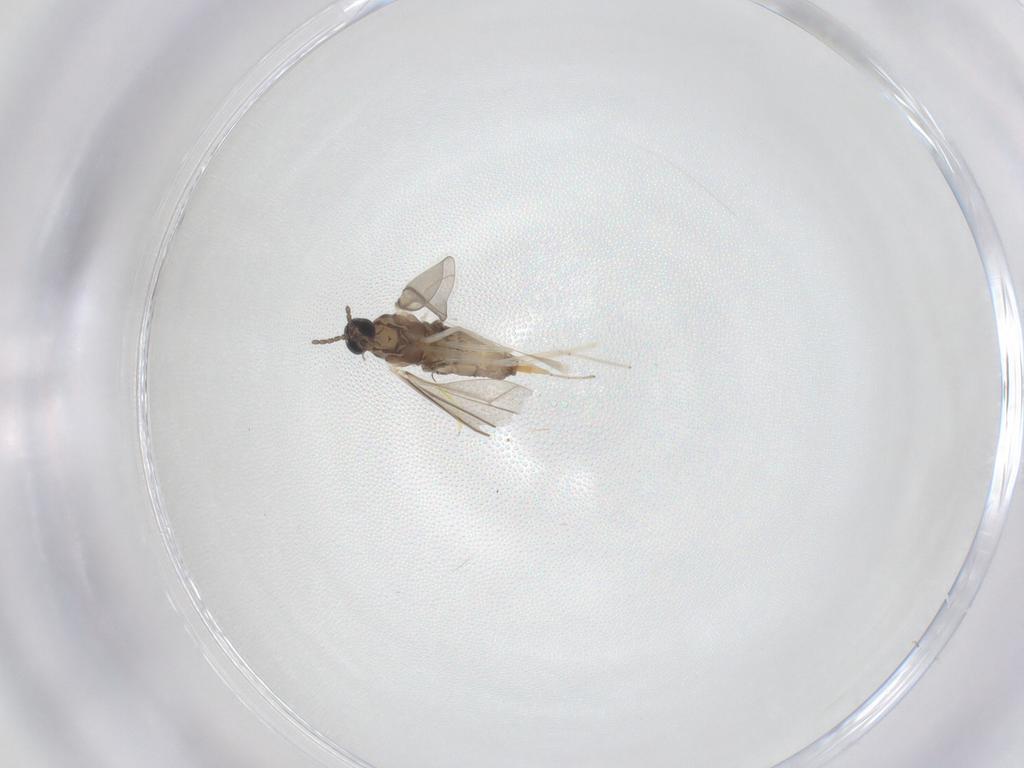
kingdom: Animalia
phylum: Arthropoda
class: Insecta
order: Diptera
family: Cecidomyiidae
